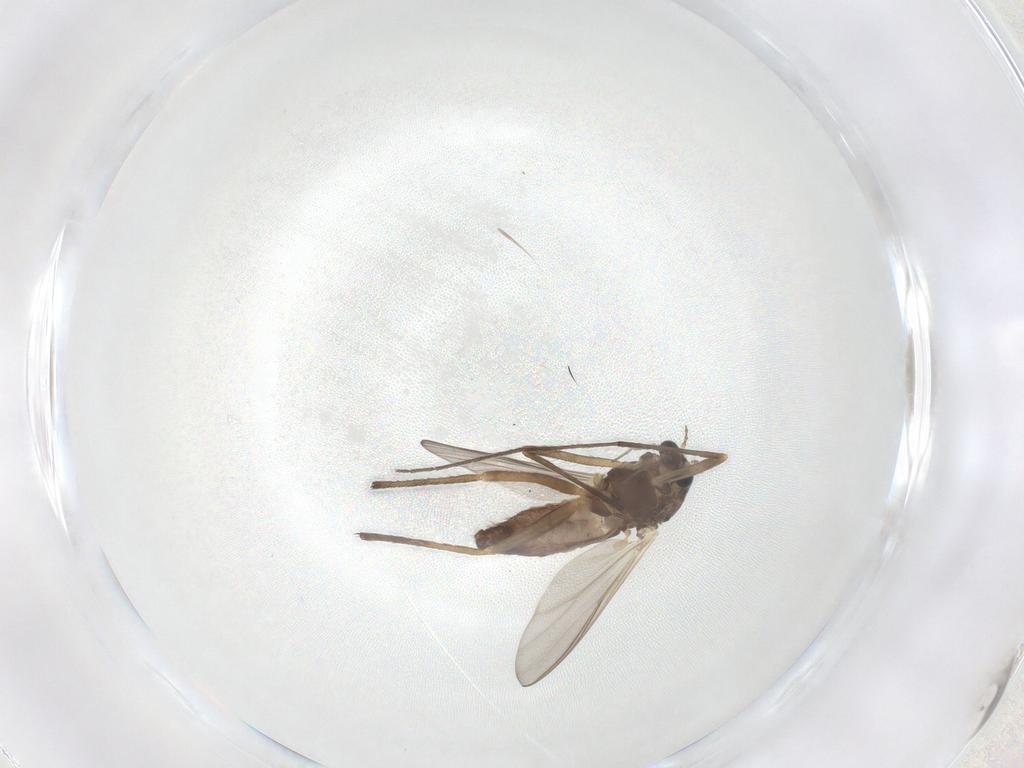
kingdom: Animalia
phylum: Arthropoda
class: Insecta
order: Diptera
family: Chironomidae
